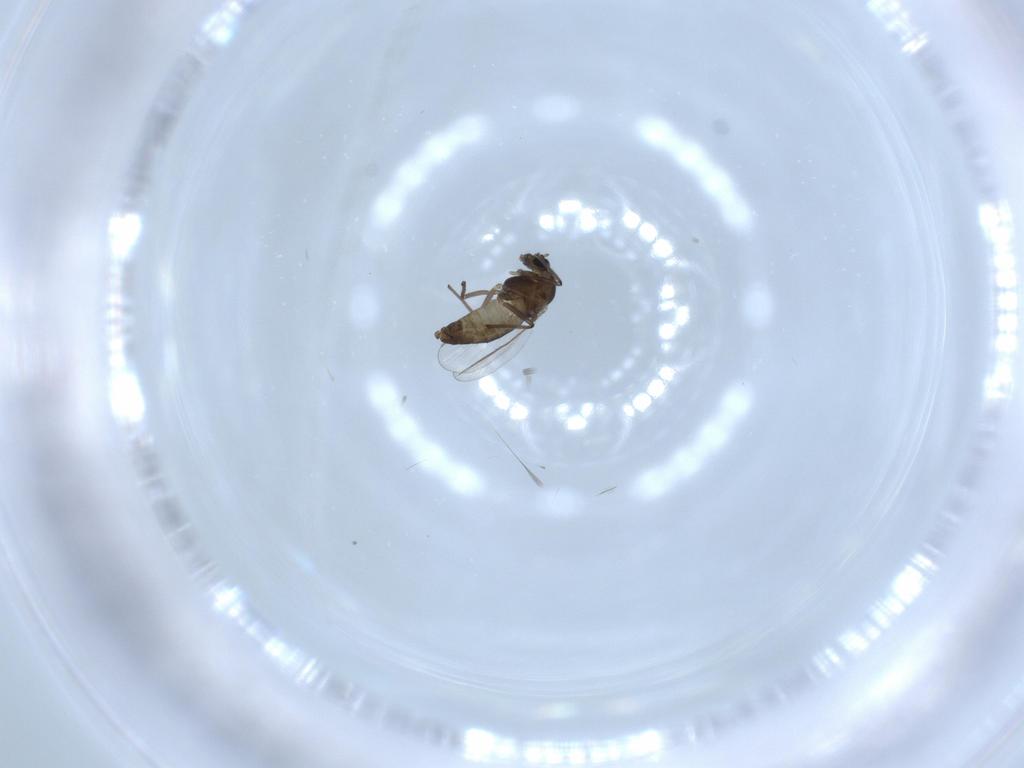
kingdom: Animalia
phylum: Arthropoda
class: Insecta
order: Diptera
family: Chironomidae
